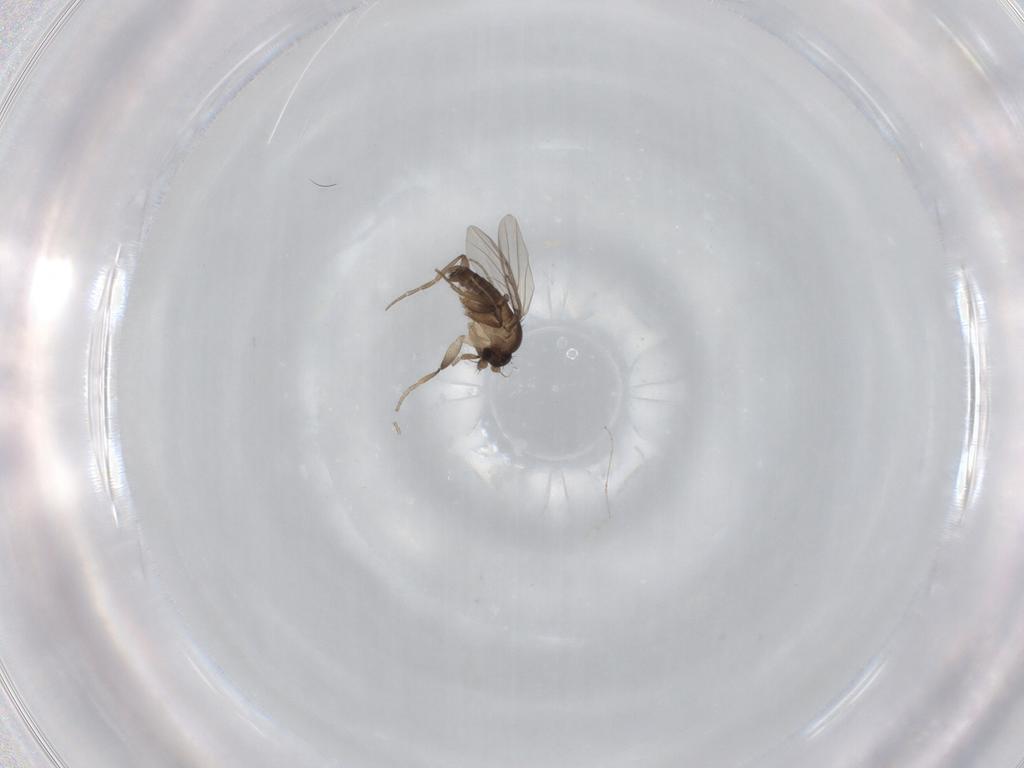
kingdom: Animalia
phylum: Arthropoda
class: Insecta
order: Diptera
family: Phoridae
